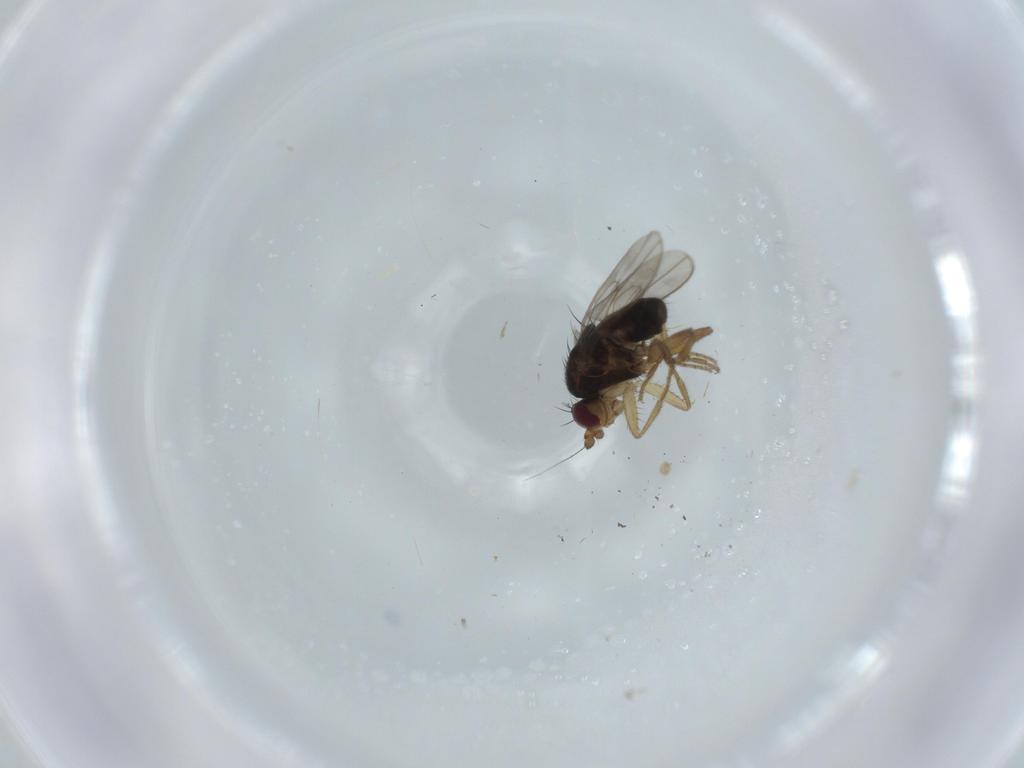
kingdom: Animalia
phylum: Arthropoda
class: Insecta
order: Diptera
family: Sphaeroceridae
